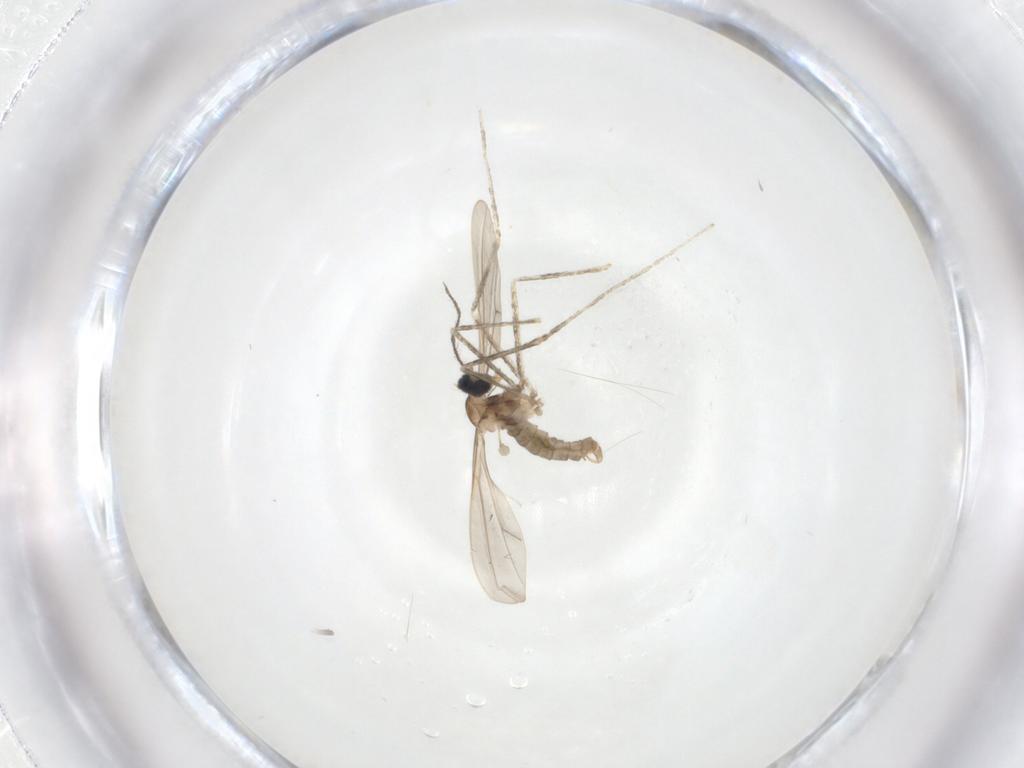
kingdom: Animalia
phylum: Arthropoda
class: Insecta
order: Diptera
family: Cecidomyiidae
